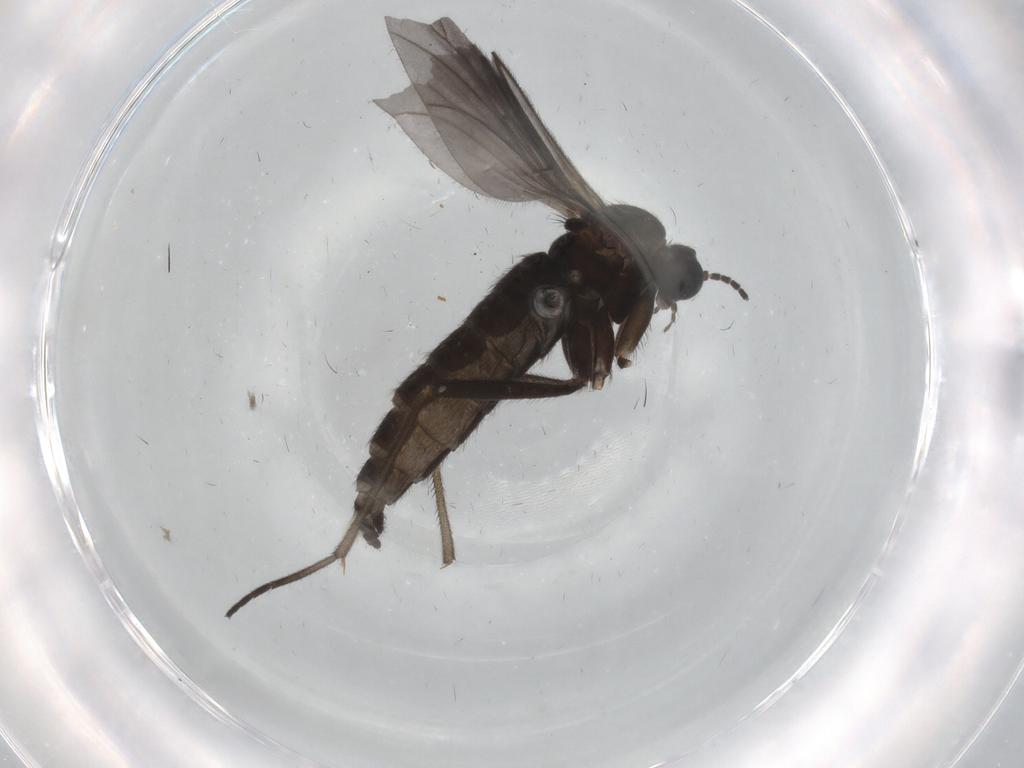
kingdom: Animalia
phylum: Arthropoda
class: Insecta
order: Diptera
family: Sciaridae
